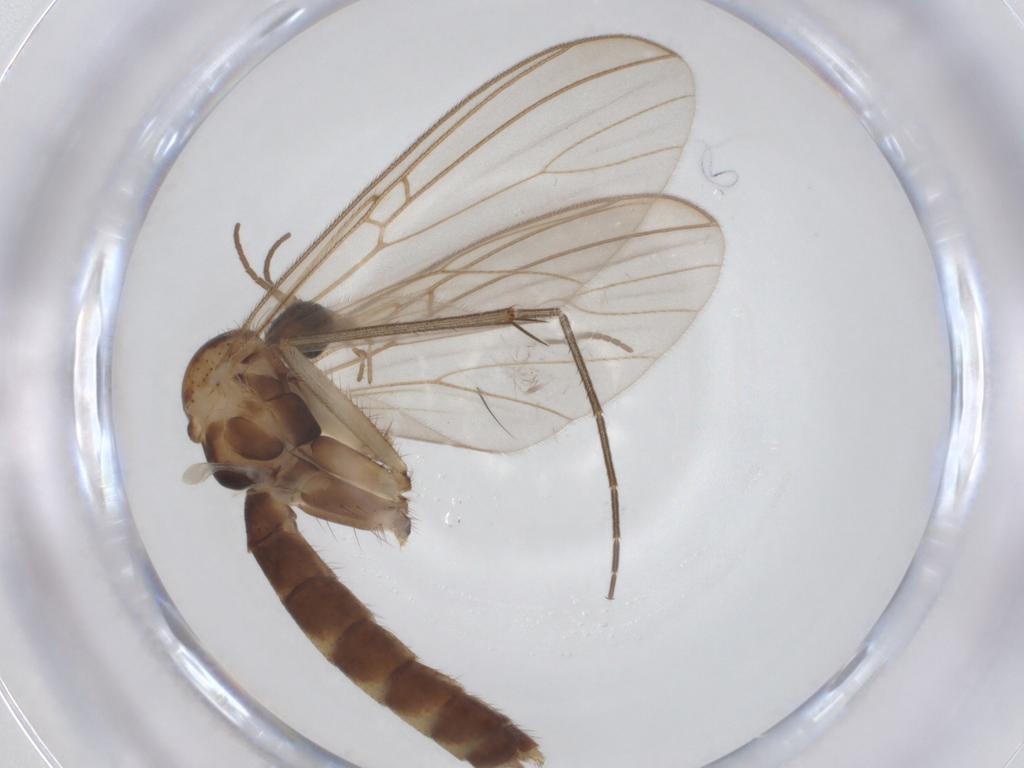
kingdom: Animalia
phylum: Arthropoda
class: Insecta
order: Diptera
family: Mycetophilidae
